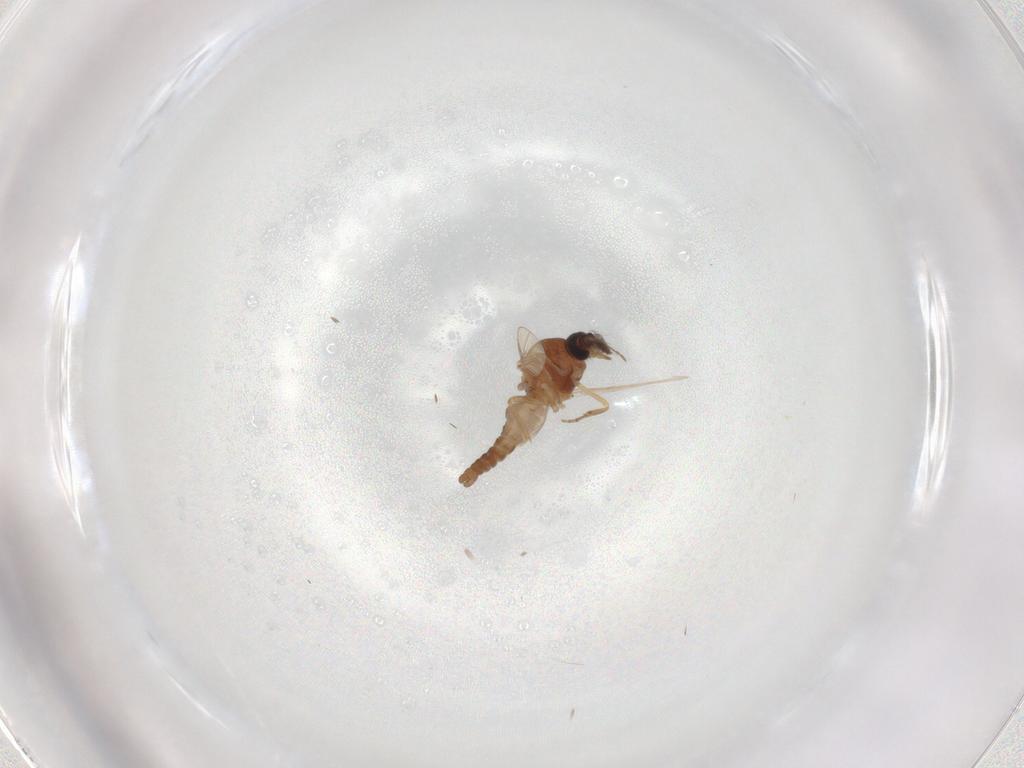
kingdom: Animalia
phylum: Arthropoda
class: Insecta
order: Diptera
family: Ceratopogonidae
